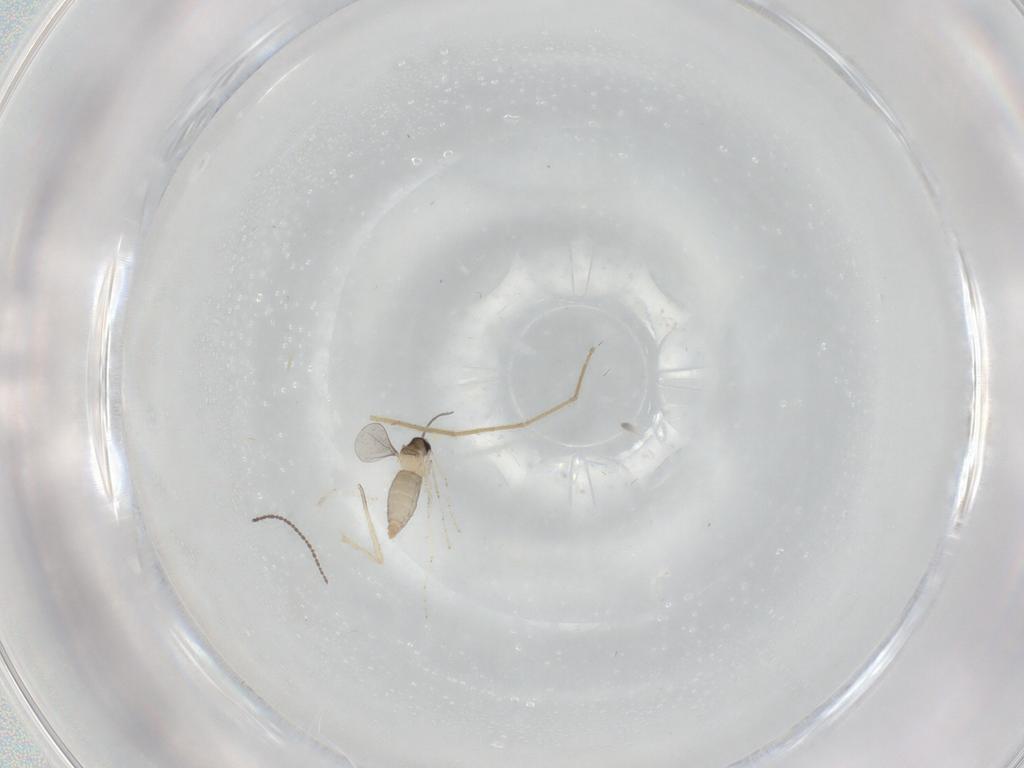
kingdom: Animalia
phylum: Arthropoda
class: Insecta
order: Diptera
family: Cecidomyiidae
